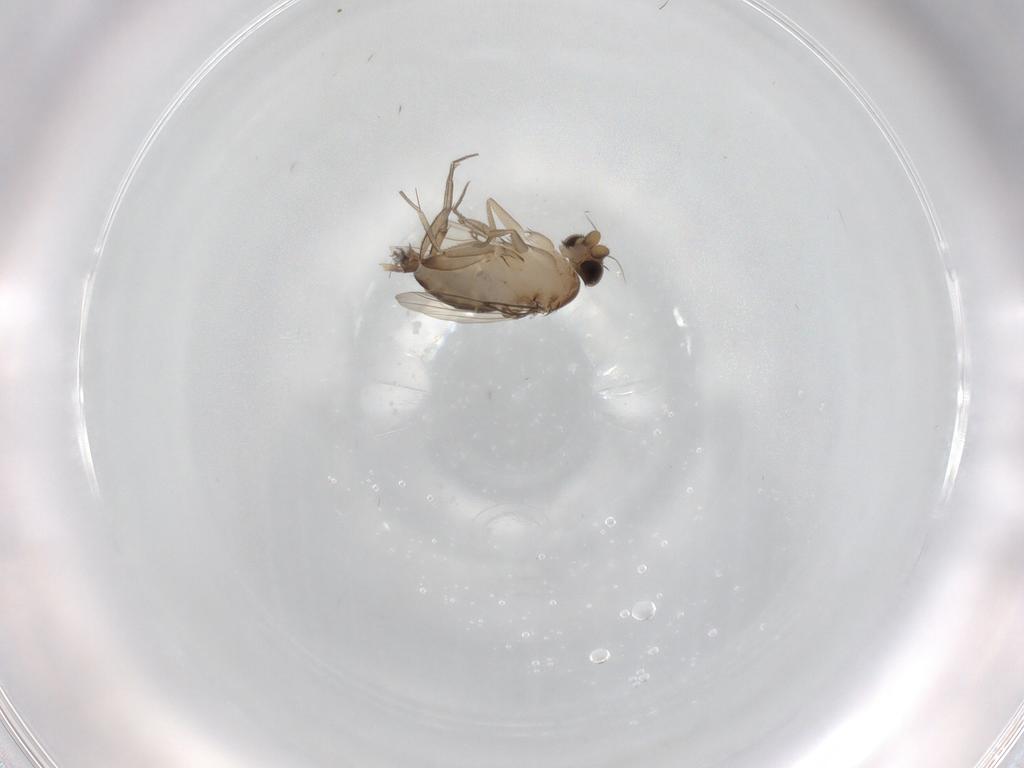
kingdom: Animalia
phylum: Arthropoda
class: Insecta
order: Diptera
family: Phoridae
